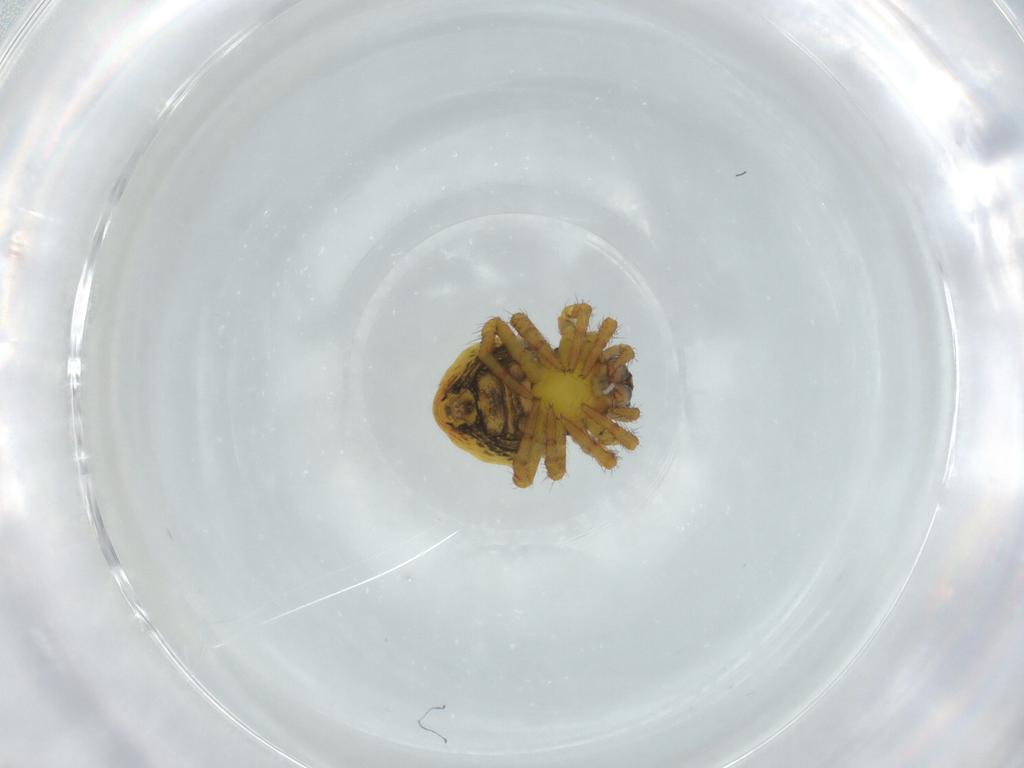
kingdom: Animalia
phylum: Arthropoda
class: Arachnida
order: Araneae
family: Araneidae
